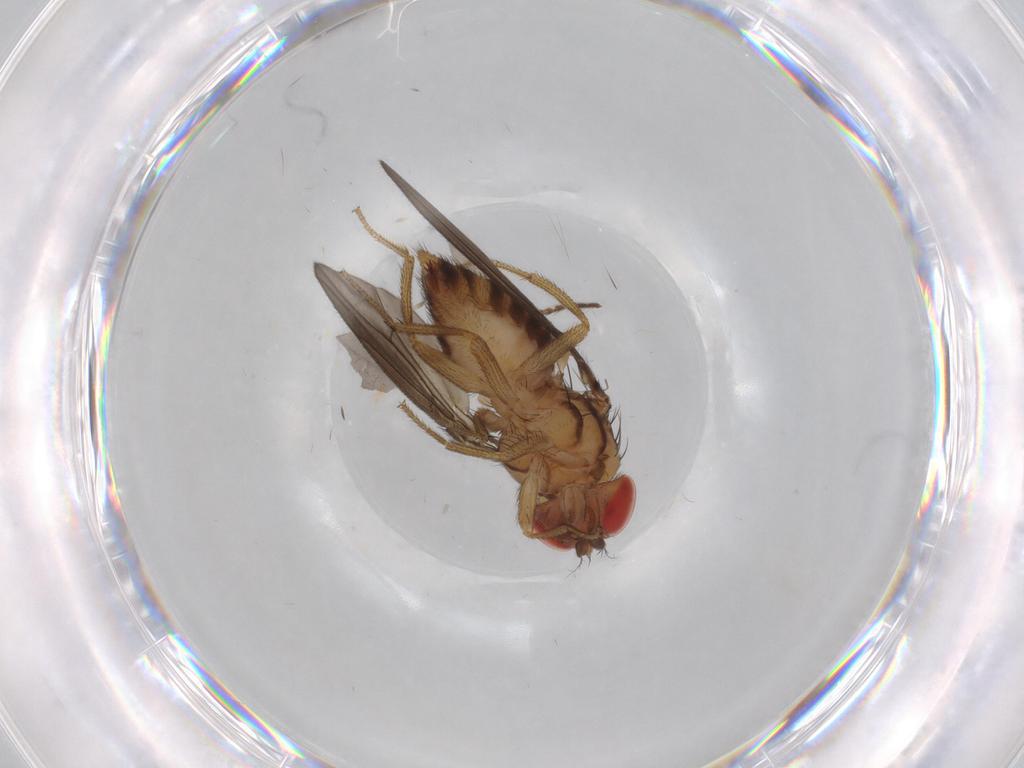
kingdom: Animalia
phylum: Arthropoda
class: Insecta
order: Diptera
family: Drosophilidae
